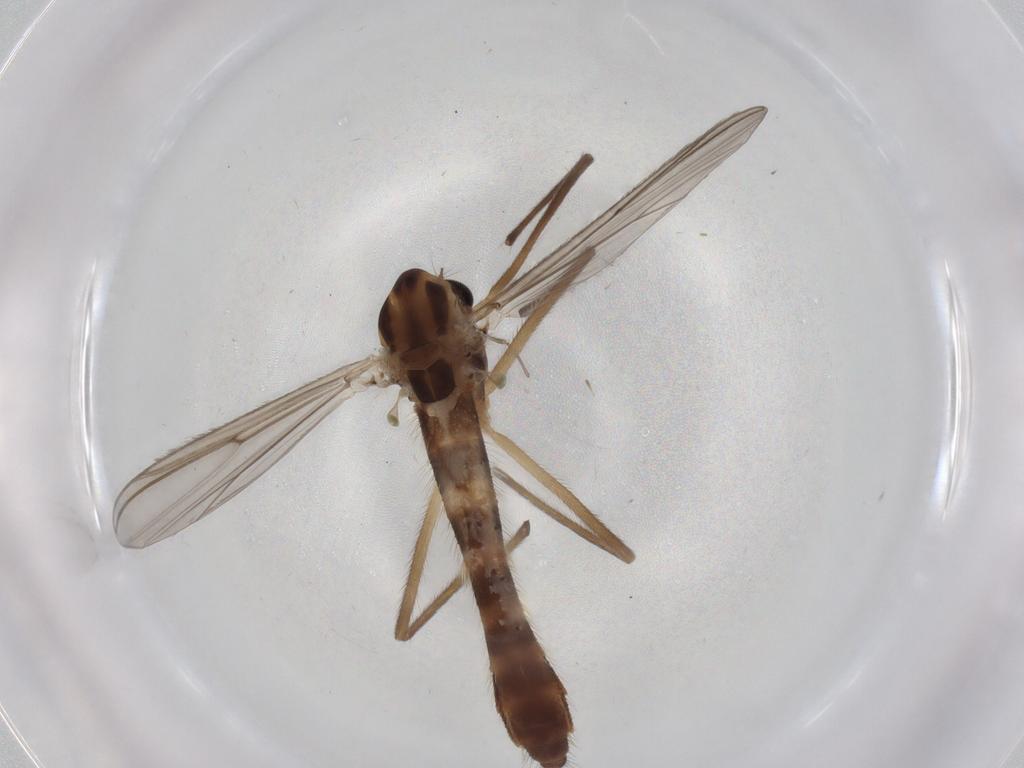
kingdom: Animalia
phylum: Arthropoda
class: Insecta
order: Diptera
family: Chironomidae
